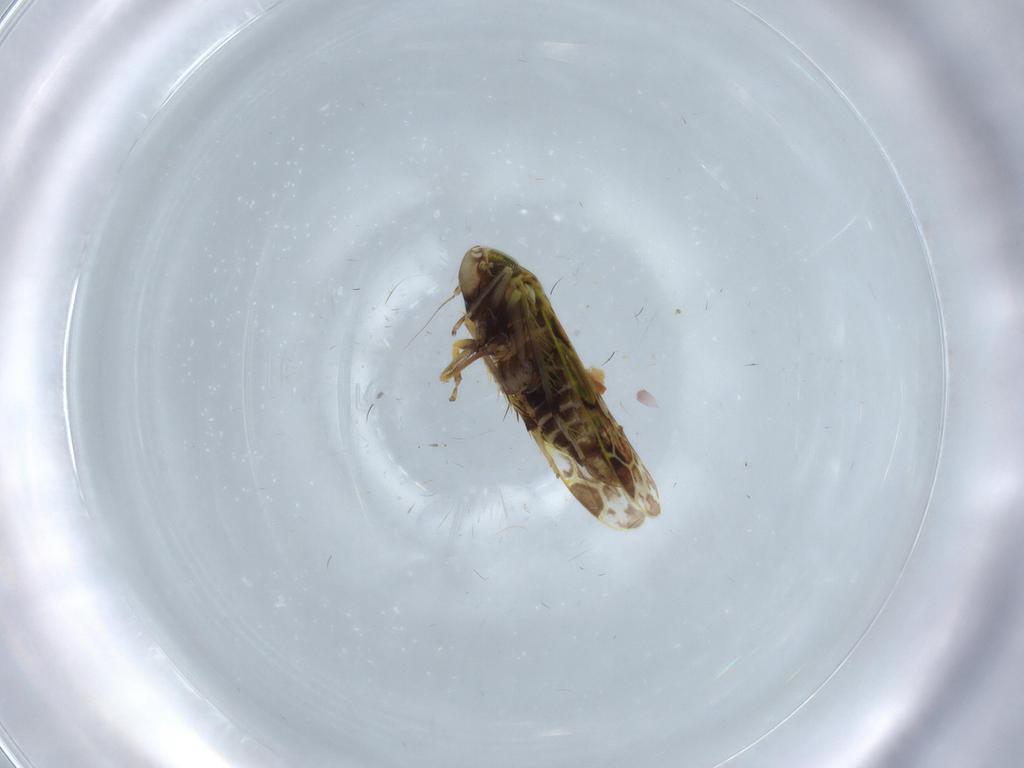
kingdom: Animalia
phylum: Arthropoda
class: Insecta
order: Hemiptera
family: Cicadellidae
